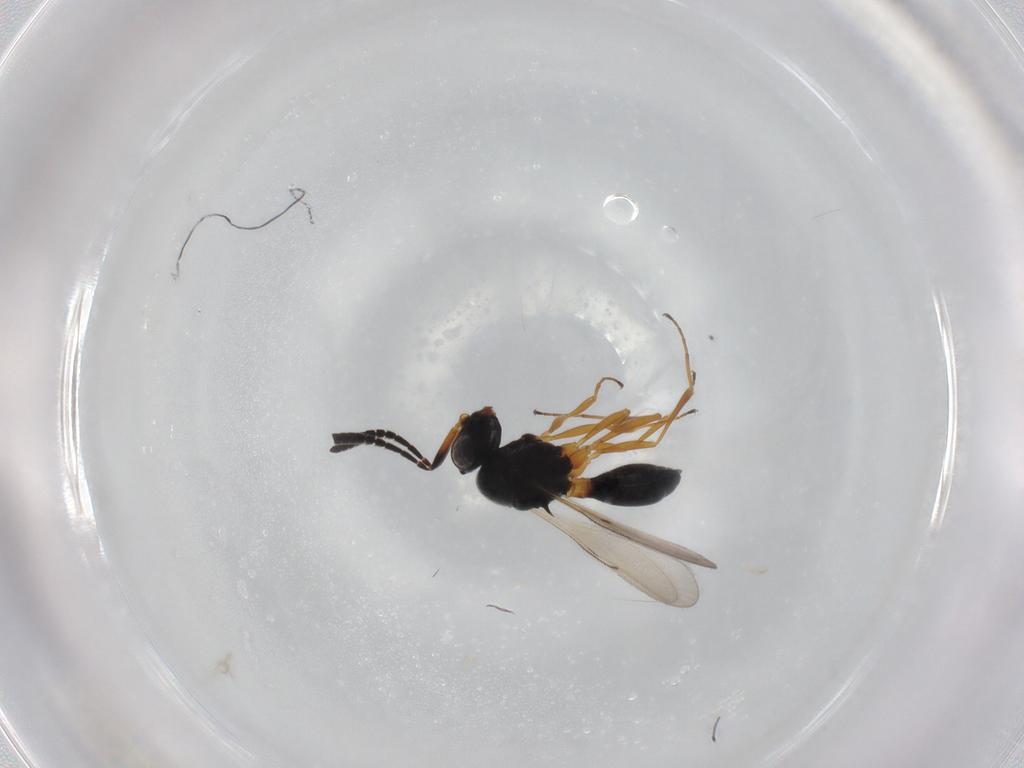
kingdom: Animalia
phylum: Arthropoda
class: Insecta
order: Hymenoptera
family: Scelionidae
